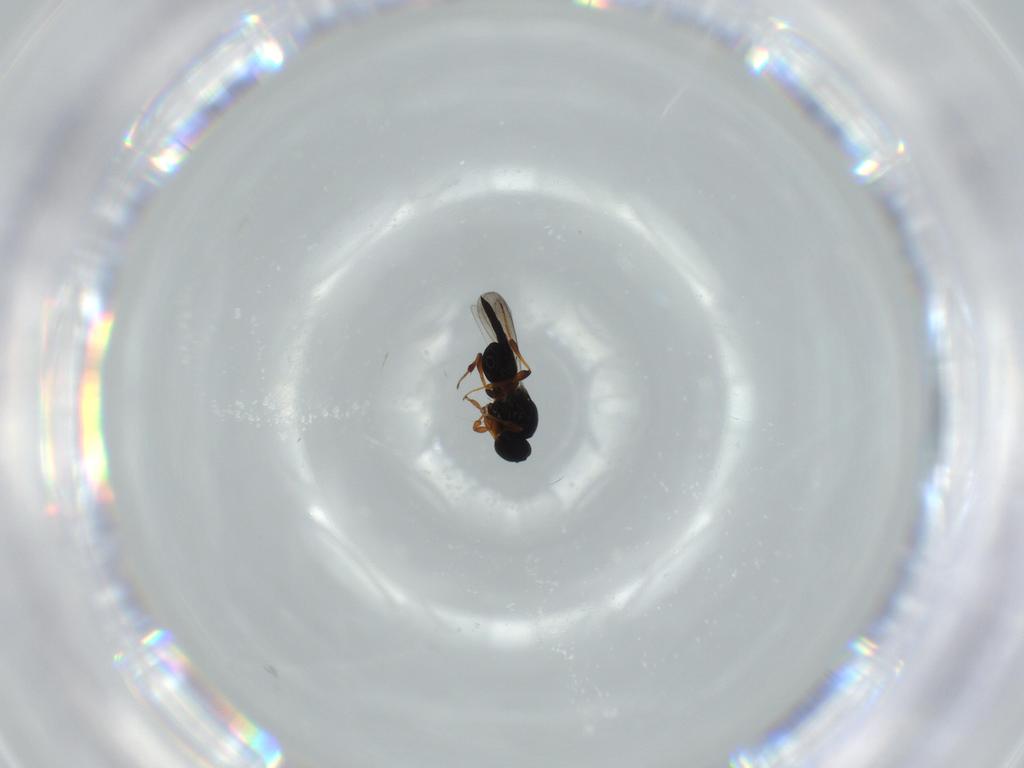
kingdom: Animalia
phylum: Arthropoda
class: Insecta
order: Hymenoptera
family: Platygastridae
